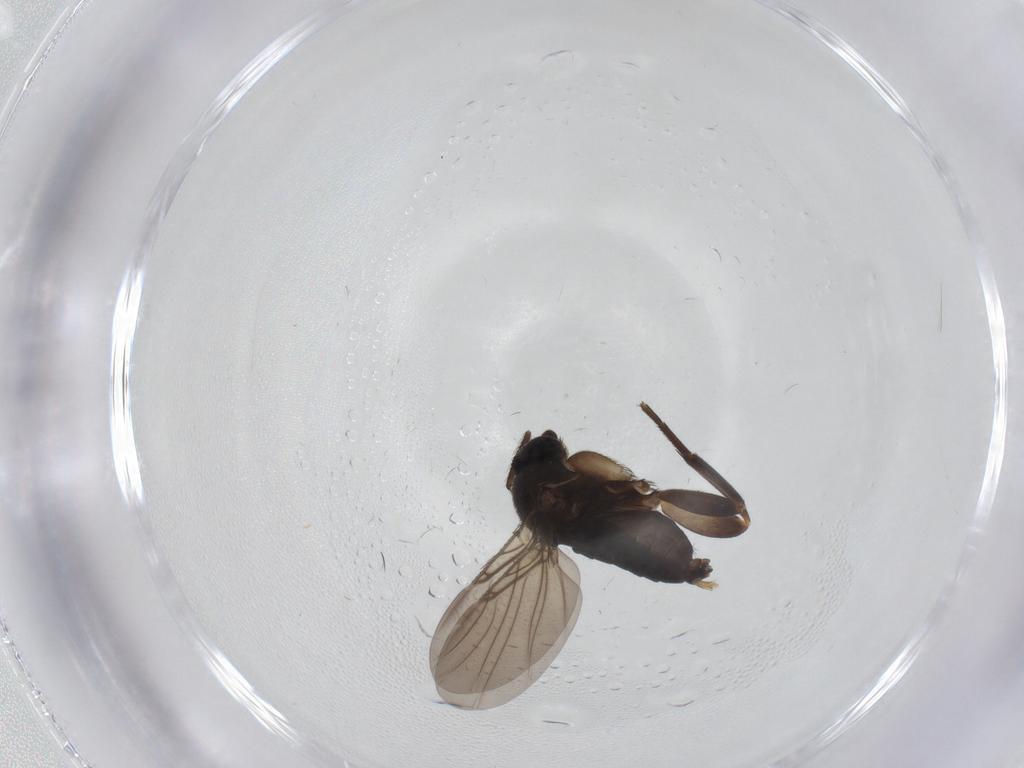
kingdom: Animalia
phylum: Arthropoda
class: Insecta
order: Diptera
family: Phoridae
